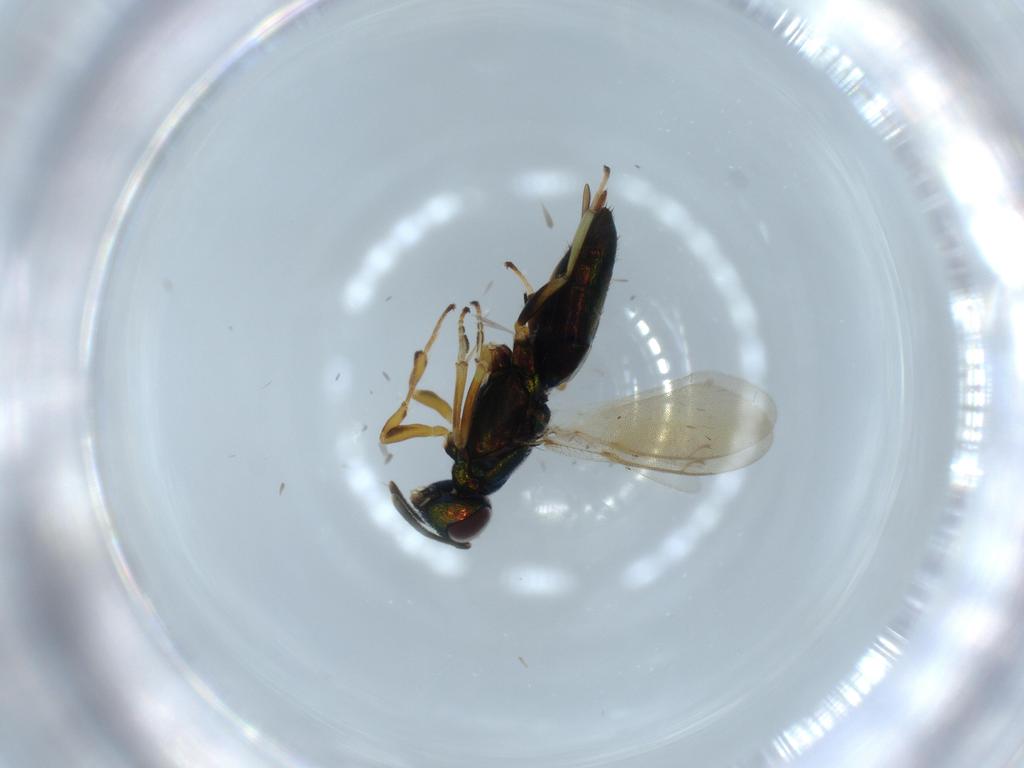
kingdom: Animalia
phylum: Arthropoda
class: Insecta
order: Hymenoptera
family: Eupelmidae
